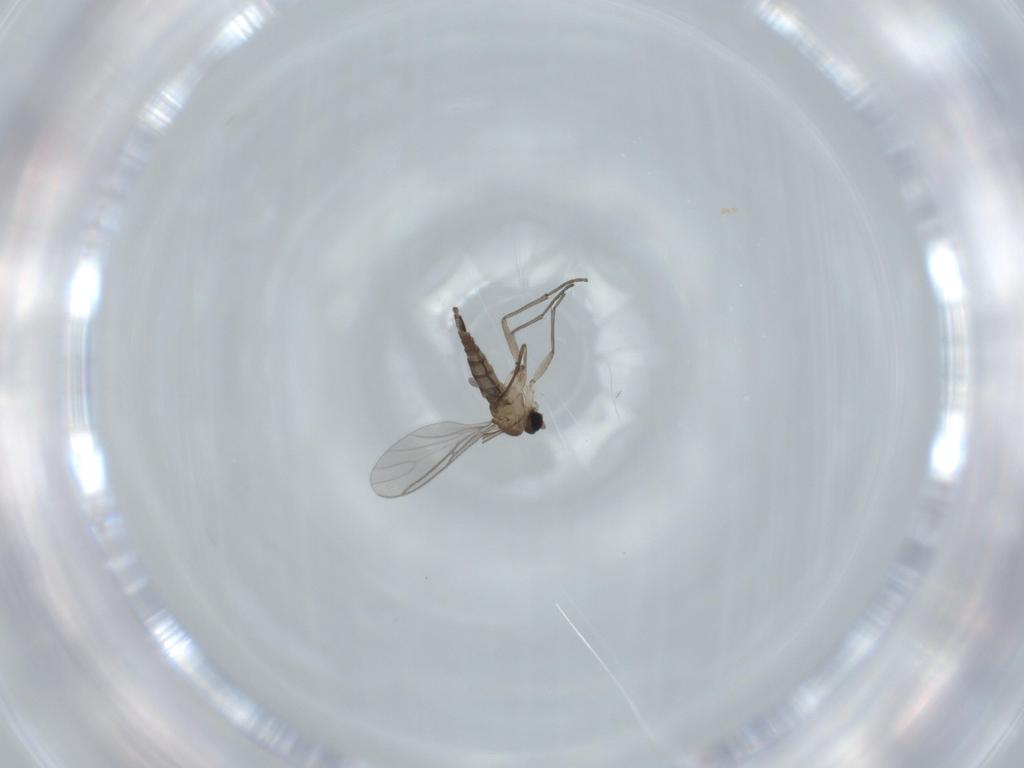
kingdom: Animalia
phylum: Arthropoda
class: Insecta
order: Diptera
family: Sciaridae
